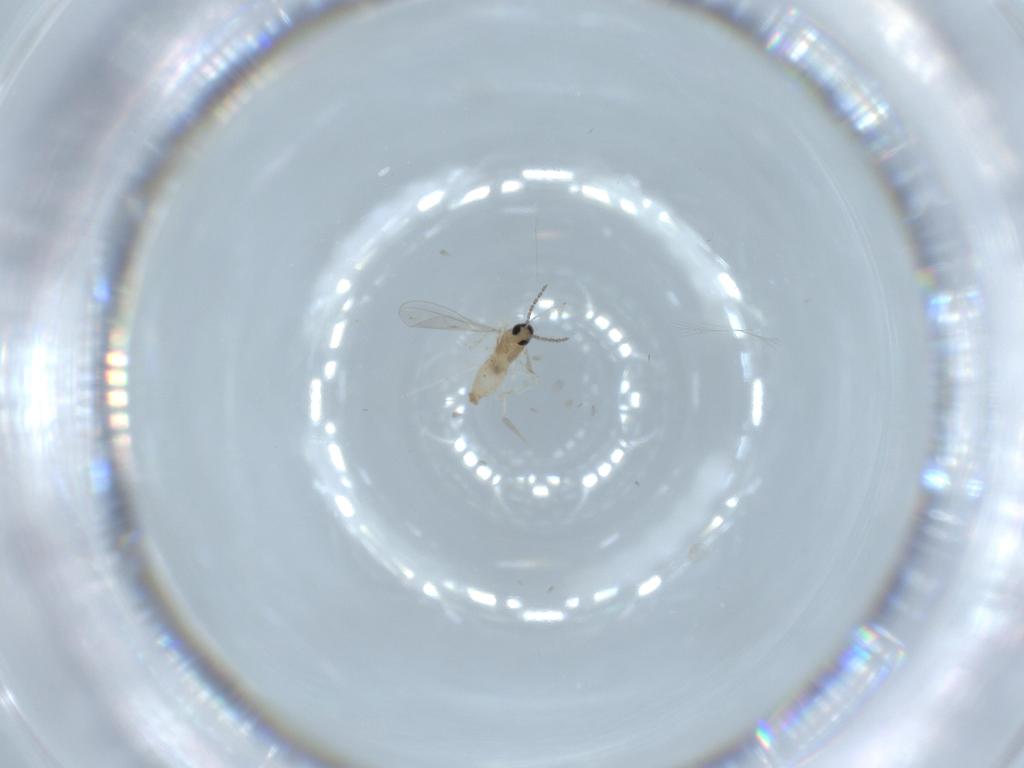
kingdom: Animalia
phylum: Arthropoda
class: Insecta
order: Diptera
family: Cecidomyiidae
